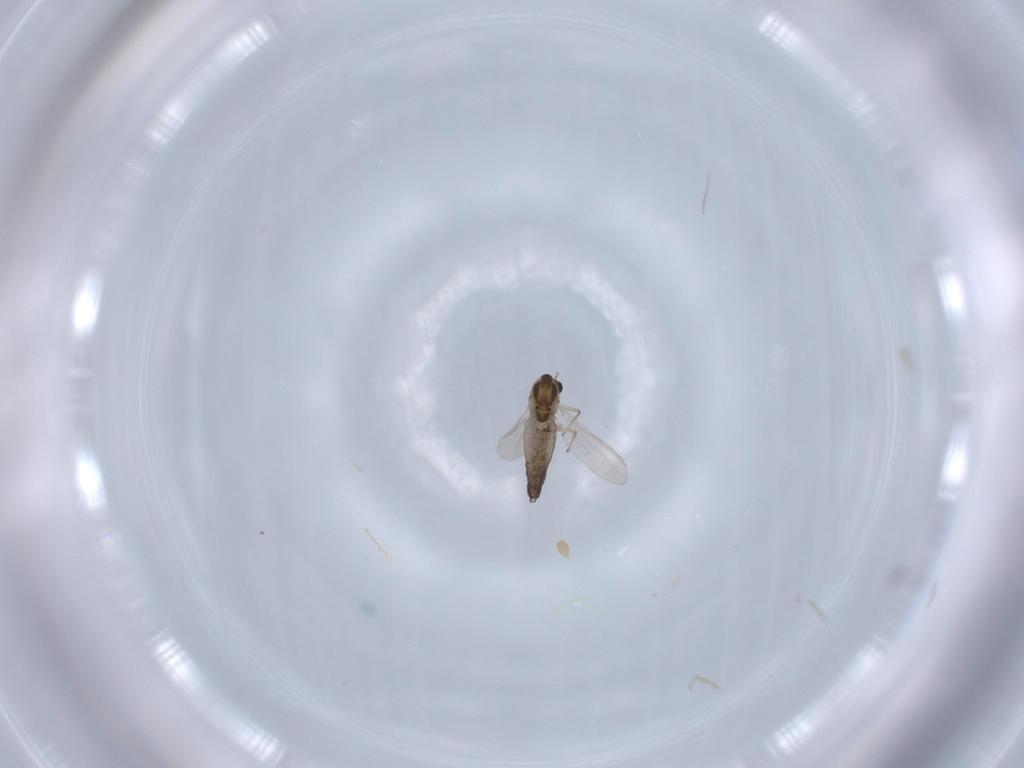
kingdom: Animalia
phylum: Arthropoda
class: Insecta
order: Diptera
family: Chironomidae
